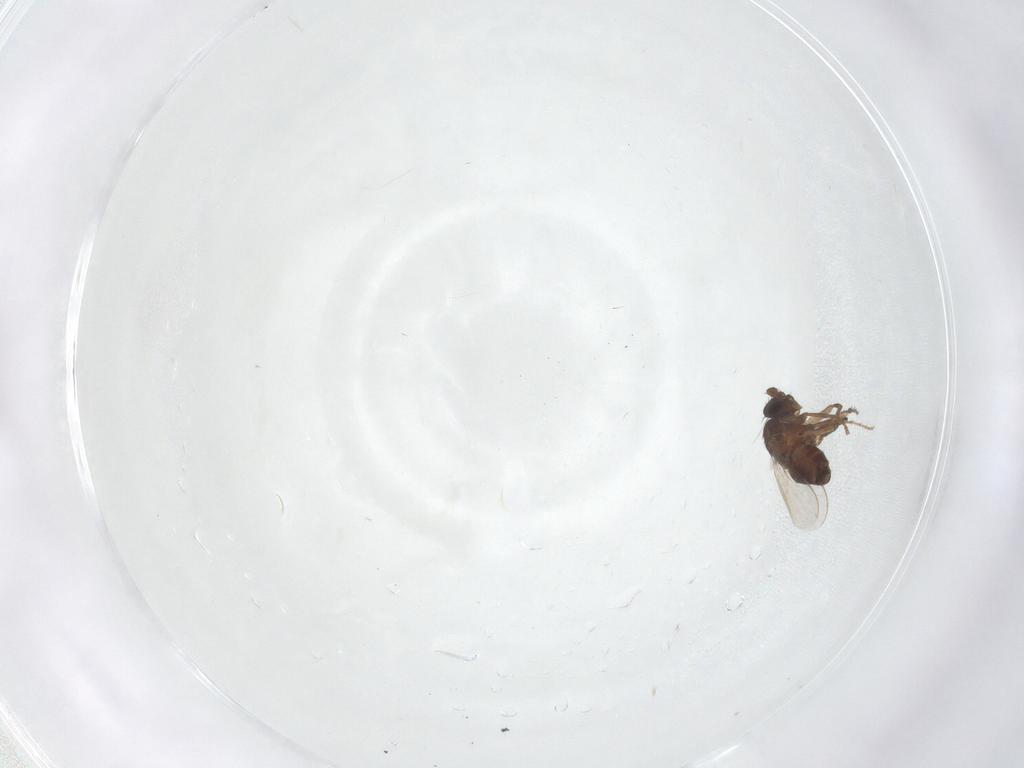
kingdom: Animalia
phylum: Arthropoda
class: Insecta
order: Diptera
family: Sphaeroceridae
